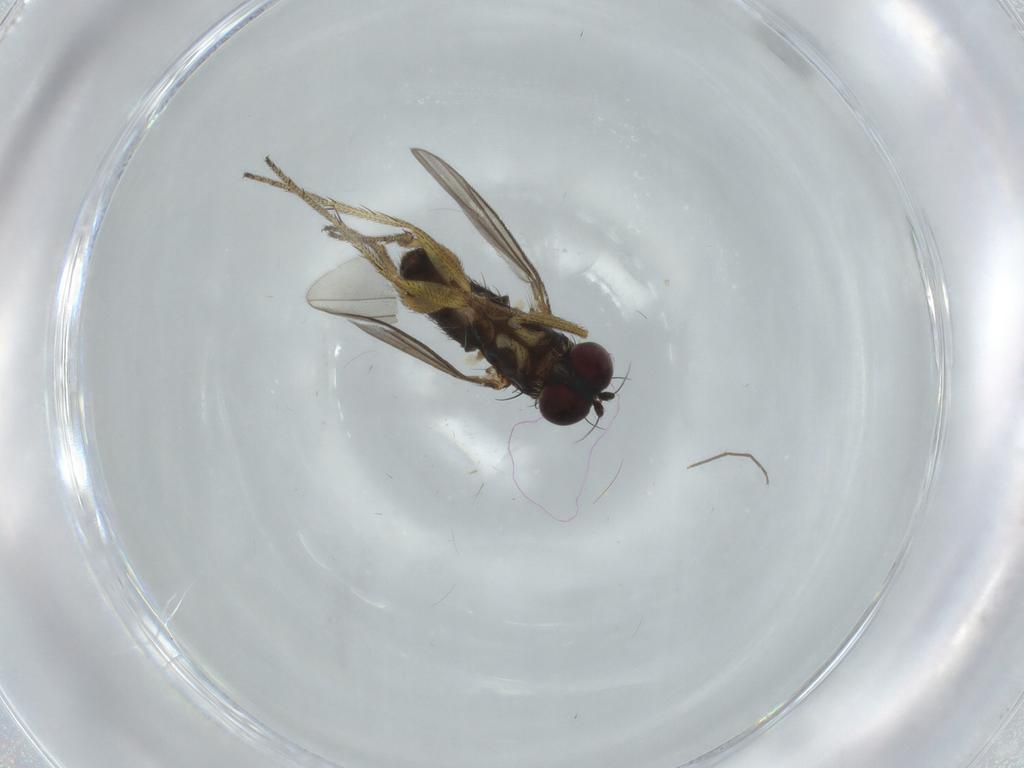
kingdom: Animalia
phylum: Arthropoda
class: Insecta
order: Diptera
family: Dolichopodidae
